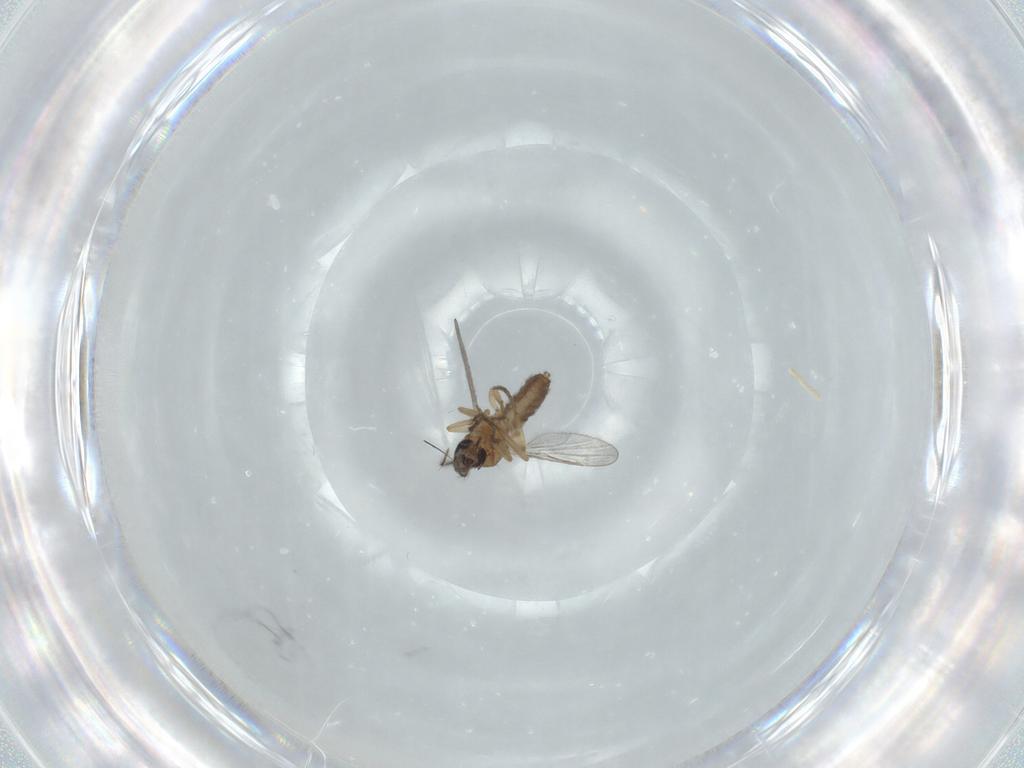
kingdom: Animalia
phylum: Arthropoda
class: Insecta
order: Diptera
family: Ceratopogonidae
